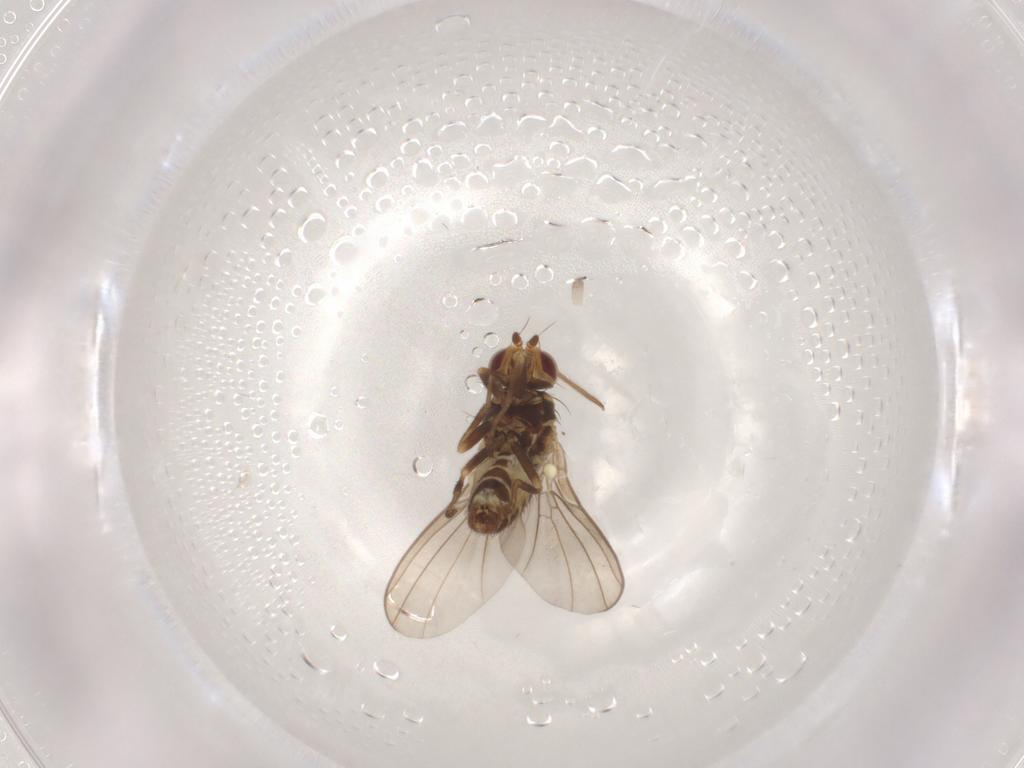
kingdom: Animalia
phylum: Arthropoda
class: Insecta
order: Diptera
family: Agromyzidae
